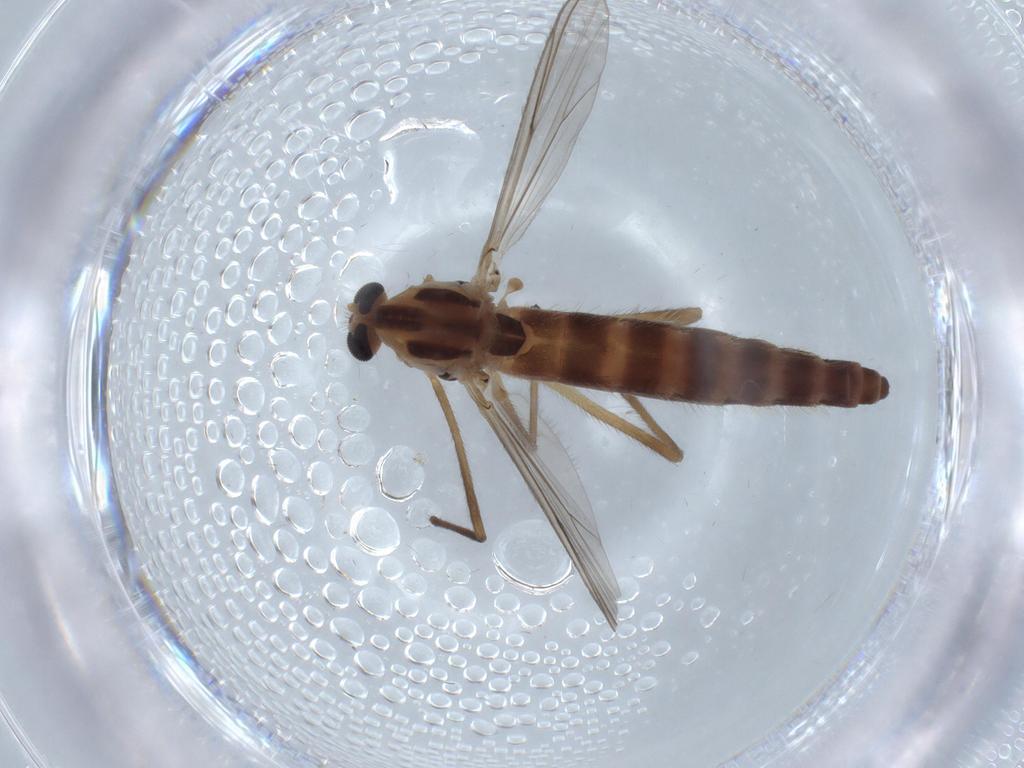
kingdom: Animalia
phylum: Arthropoda
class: Insecta
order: Diptera
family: Chironomidae
